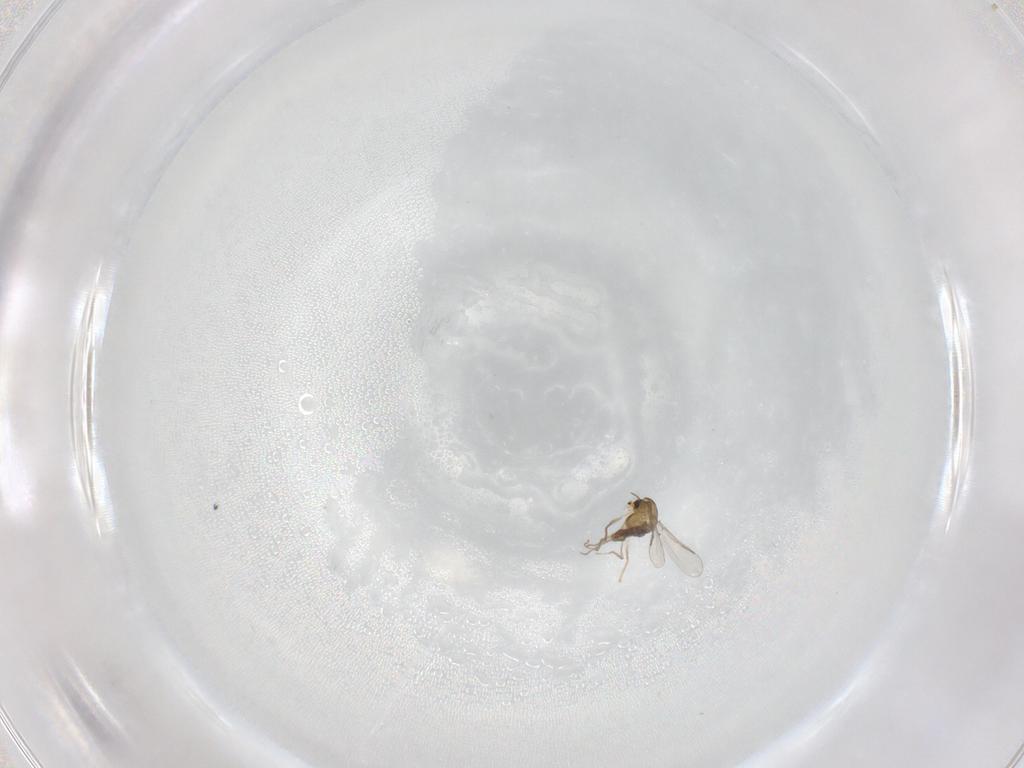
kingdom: Animalia
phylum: Arthropoda
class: Insecta
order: Diptera
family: Chironomidae
